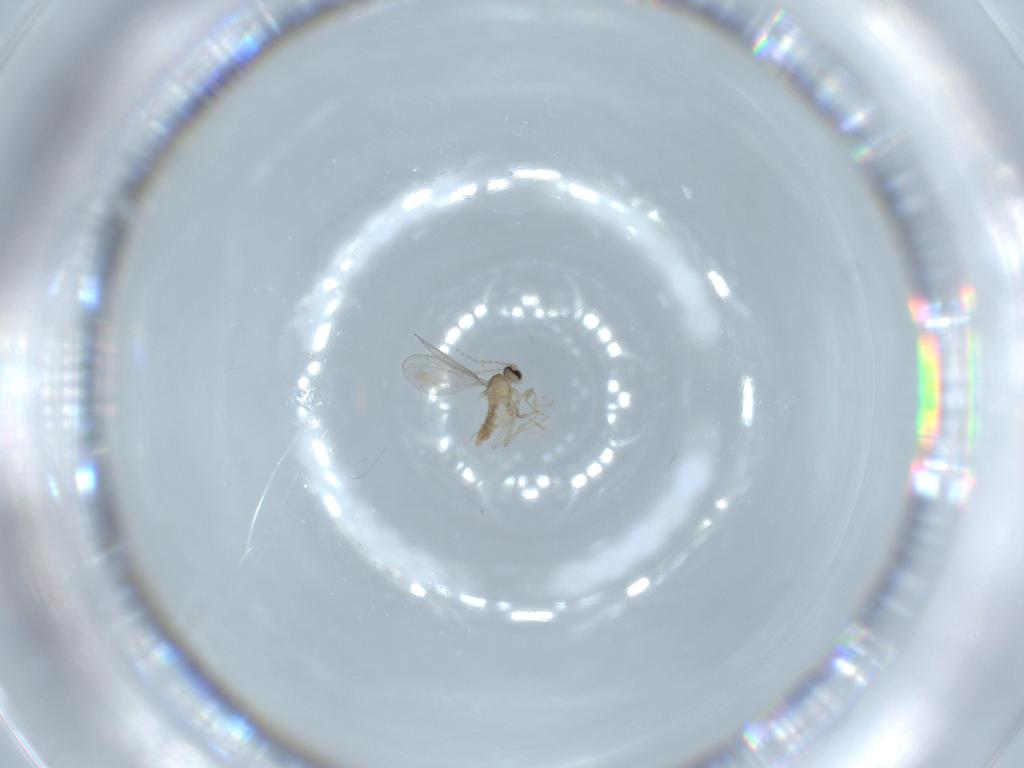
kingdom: Animalia
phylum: Arthropoda
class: Insecta
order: Diptera
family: Cecidomyiidae
